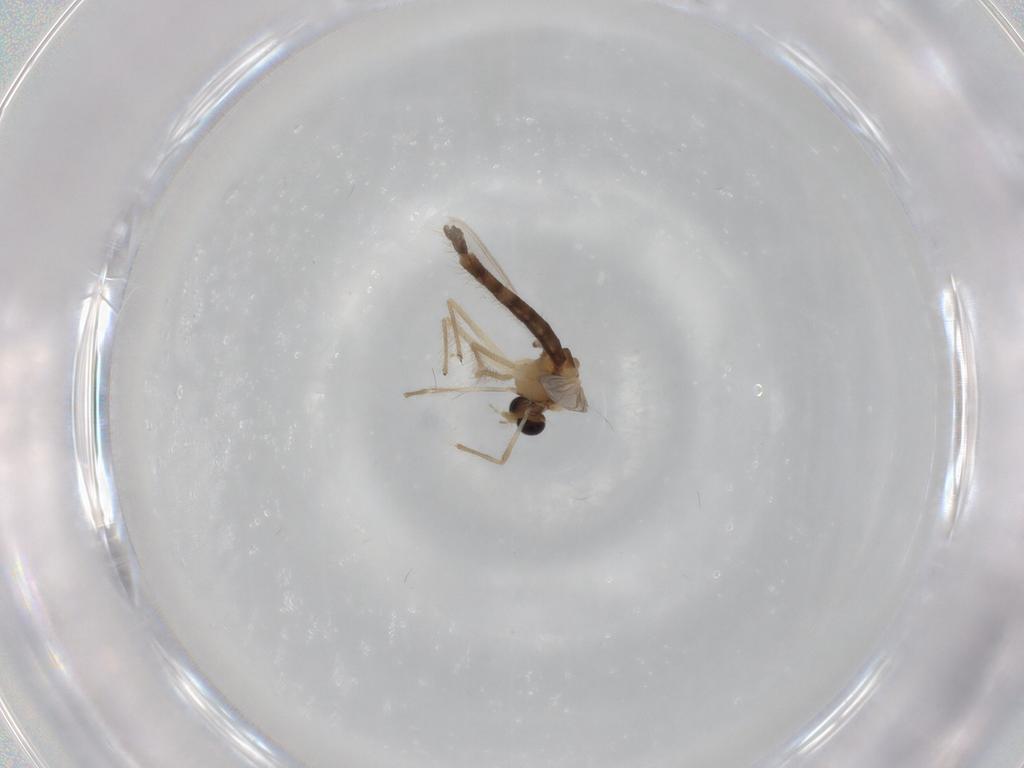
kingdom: Animalia
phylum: Arthropoda
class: Insecta
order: Diptera
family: Chironomidae
